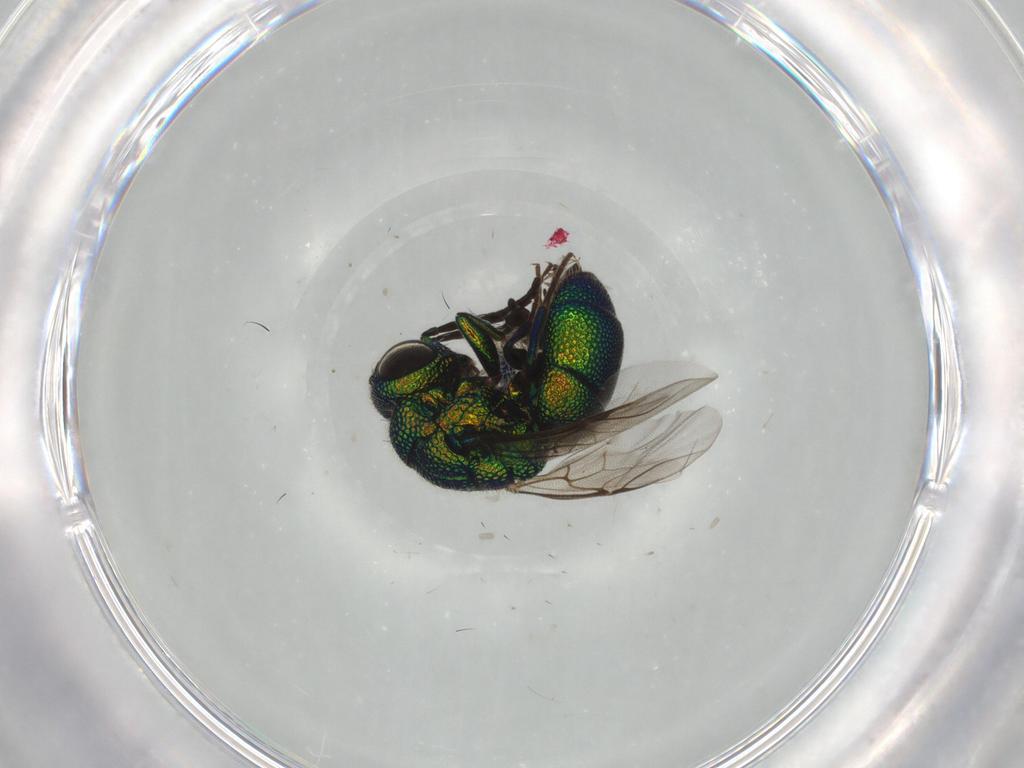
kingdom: Animalia
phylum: Arthropoda
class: Insecta
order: Hymenoptera
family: Chrysididae
